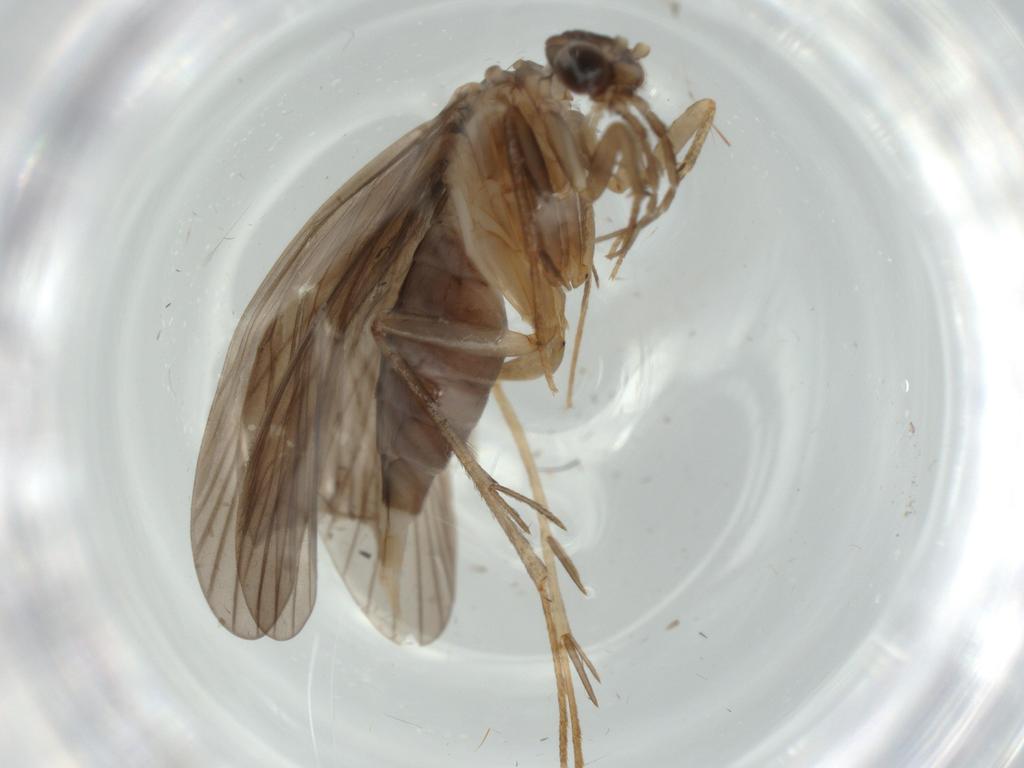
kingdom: Animalia
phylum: Arthropoda
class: Insecta
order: Trichoptera
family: Philopotamidae
